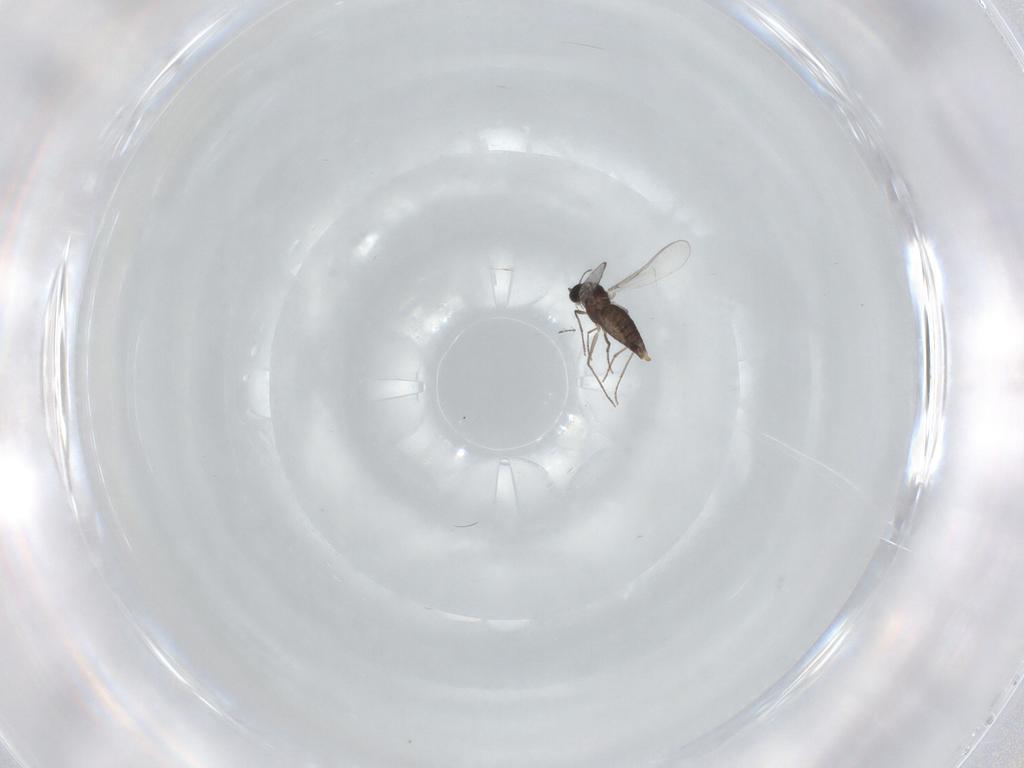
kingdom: Animalia
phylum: Arthropoda
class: Insecta
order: Diptera
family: Chironomidae
